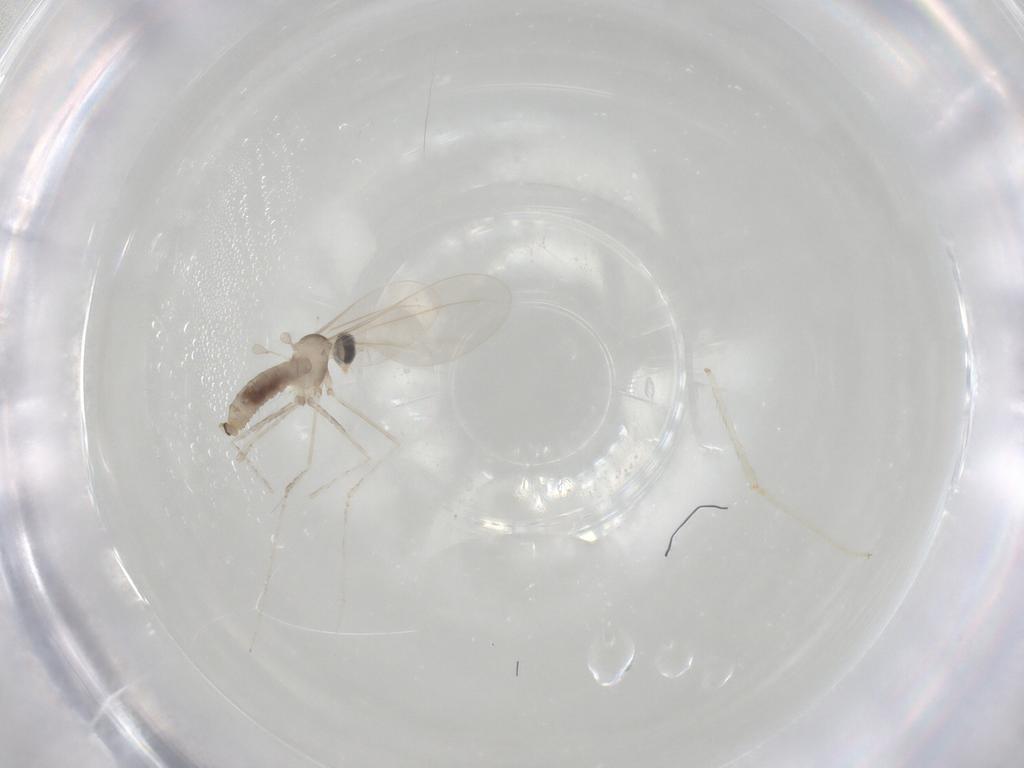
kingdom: Animalia
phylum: Arthropoda
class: Insecta
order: Diptera
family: Cecidomyiidae
